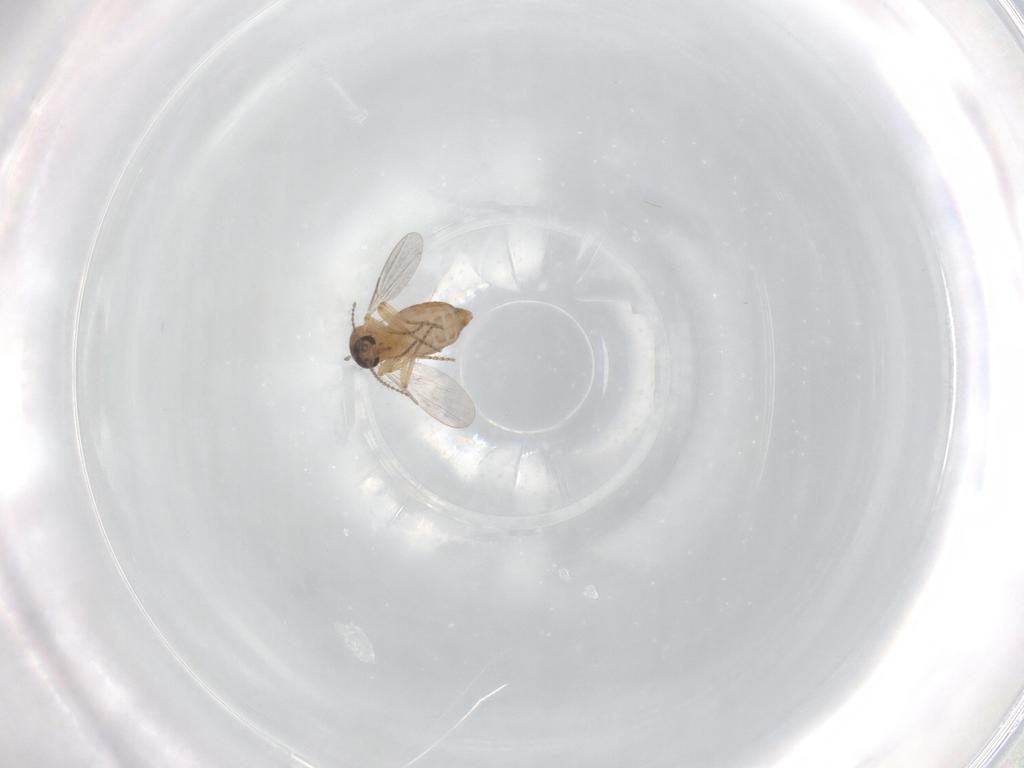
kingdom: Animalia
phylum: Arthropoda
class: Insecta
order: Diptera
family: Ceratopogonidae
